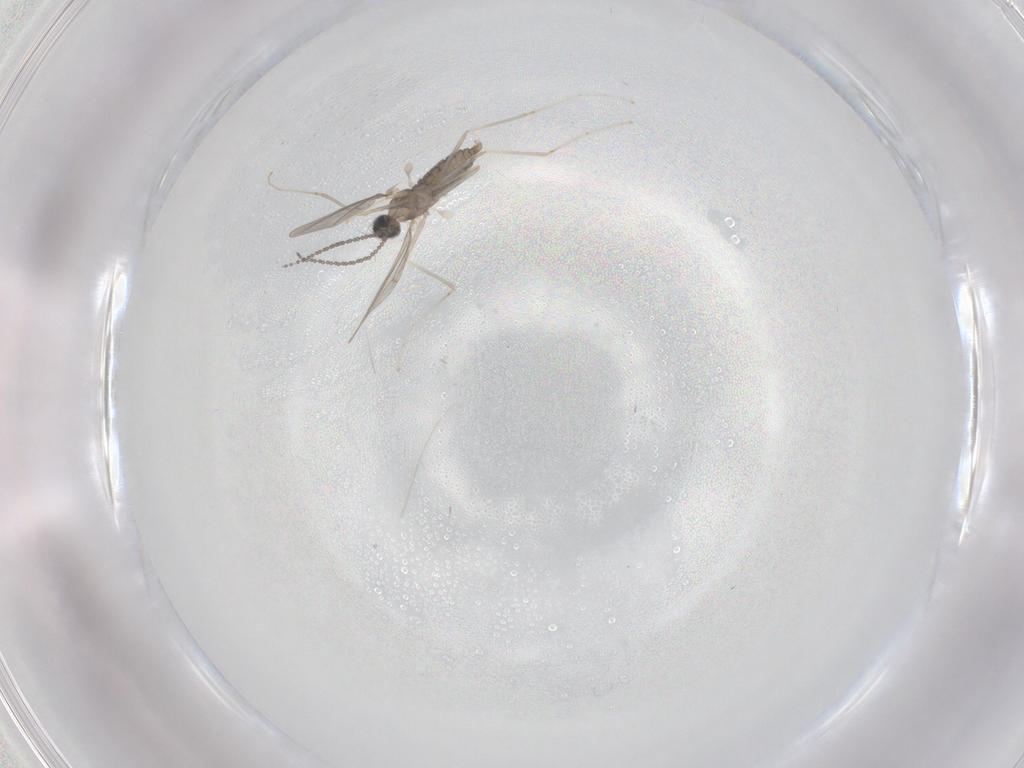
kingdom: Animalia
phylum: Arthropoda
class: Insecta
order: Diptera
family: Cecidomyiidae
